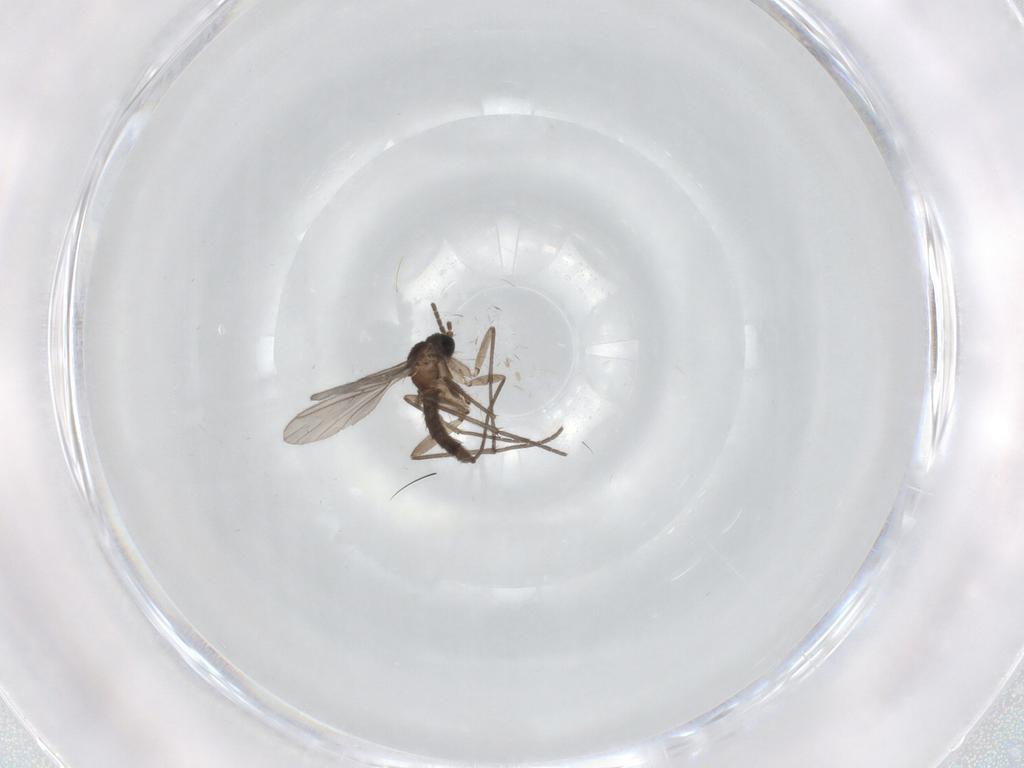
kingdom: Animalia
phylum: Arthropoda
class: Insecta
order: Diptera
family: Sciaridae
